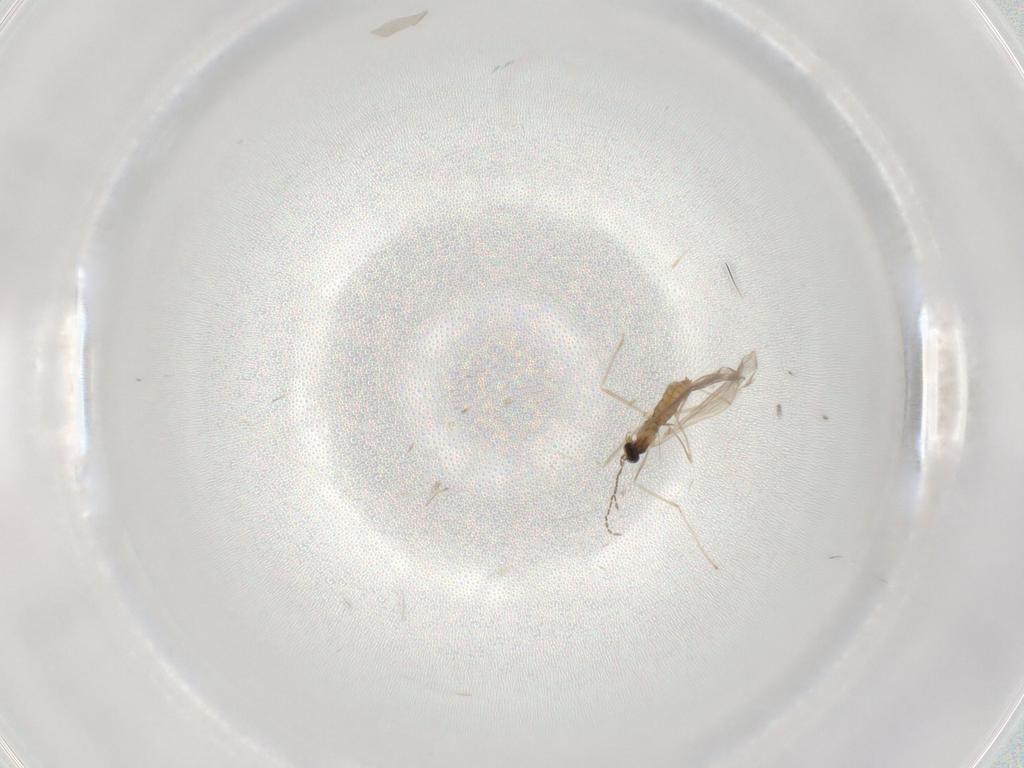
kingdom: Animalia
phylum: Arthropoda
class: Insecta
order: Diptera
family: Cecidomyiidae
